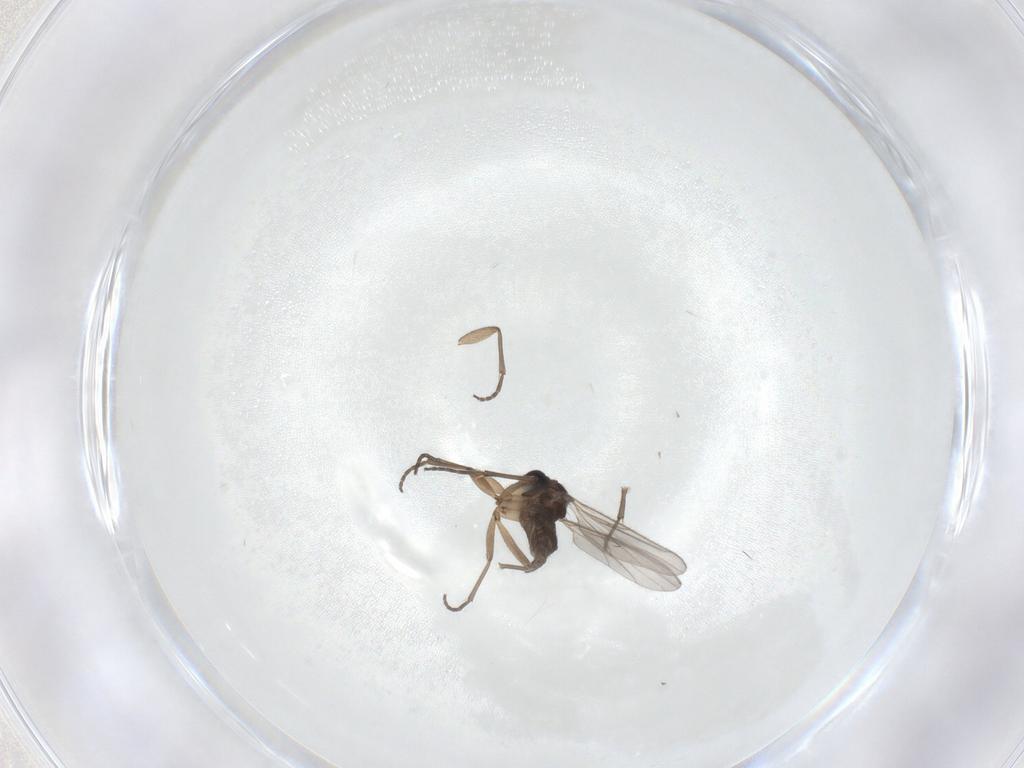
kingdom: Animalia
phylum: Arthropoda
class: Insecta
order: Diptera
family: Sciaridae
